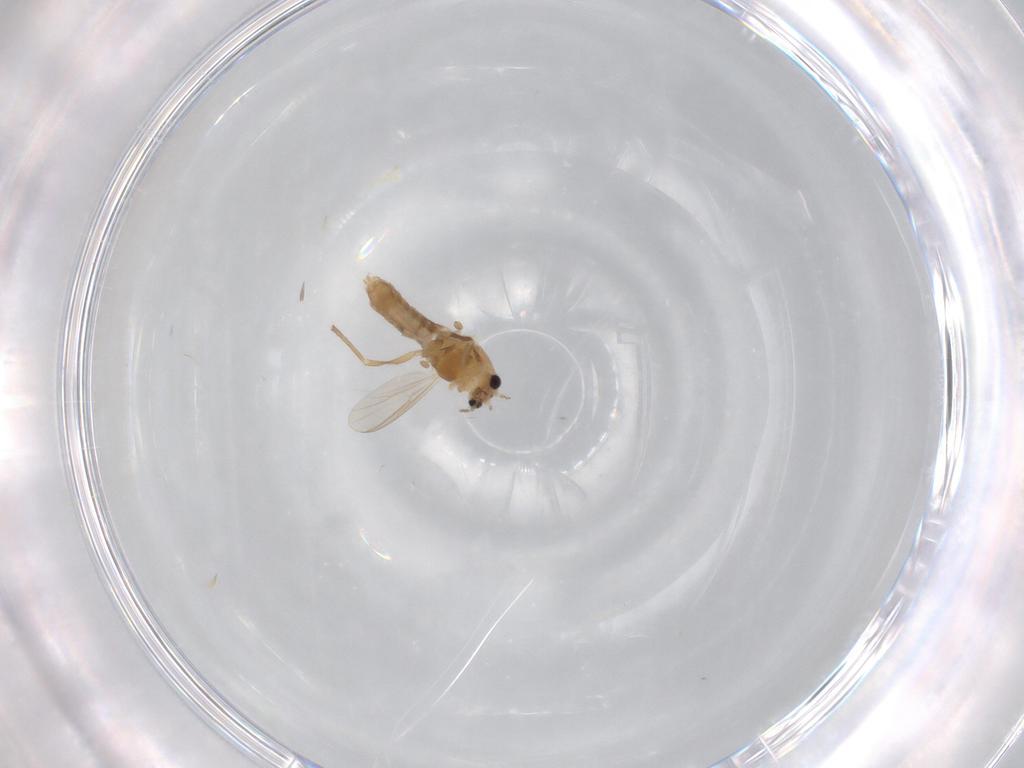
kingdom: Animalia
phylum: Arthropoda
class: Insecta
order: Diptera
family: Chironomidae
